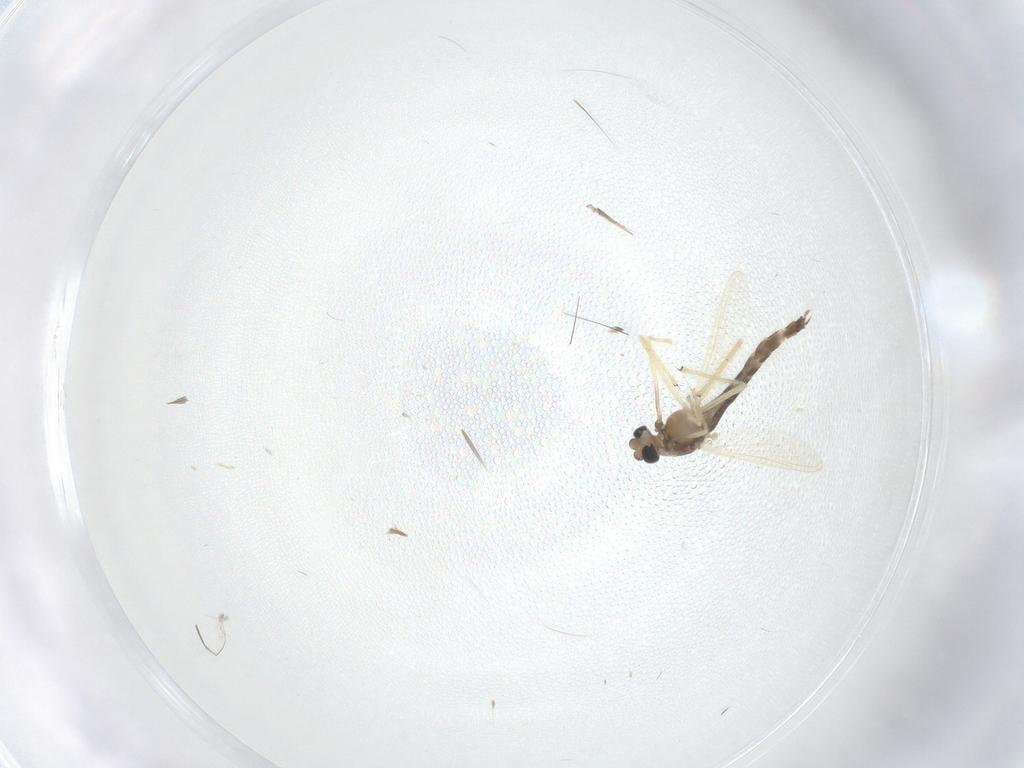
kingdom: Animalia
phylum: Arthropoda
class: Insecta
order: Diptera
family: Chironomidae
